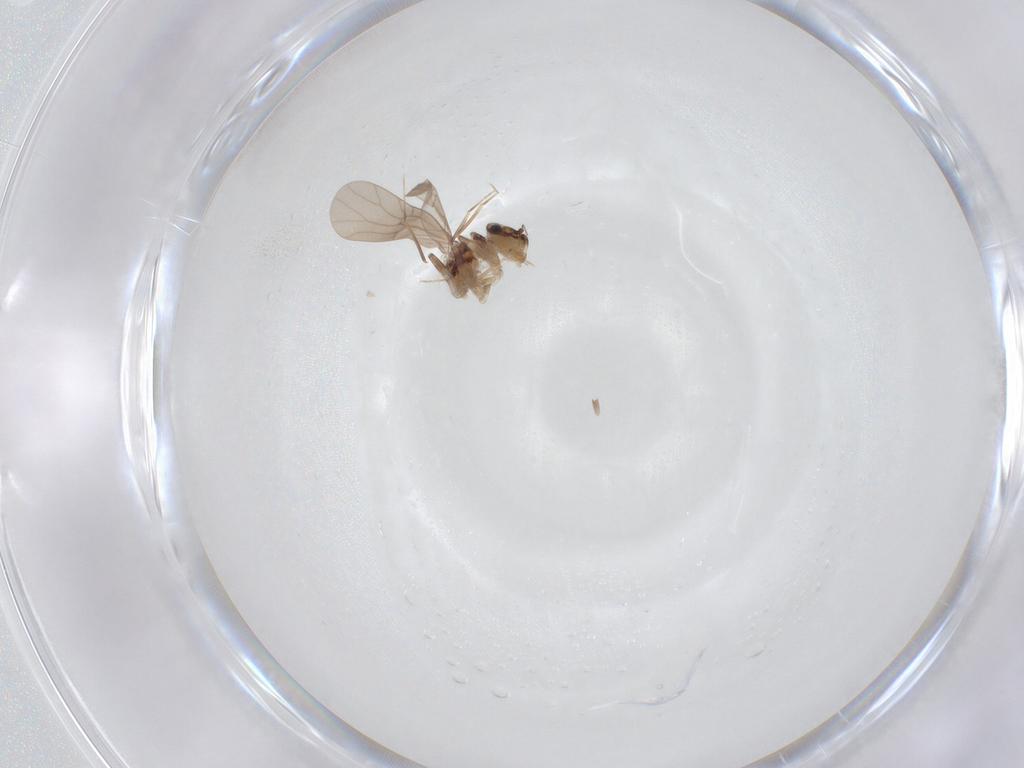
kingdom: Animalia
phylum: Arthropoda
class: Insecta
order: Psocodea
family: Lepidopsocidae
